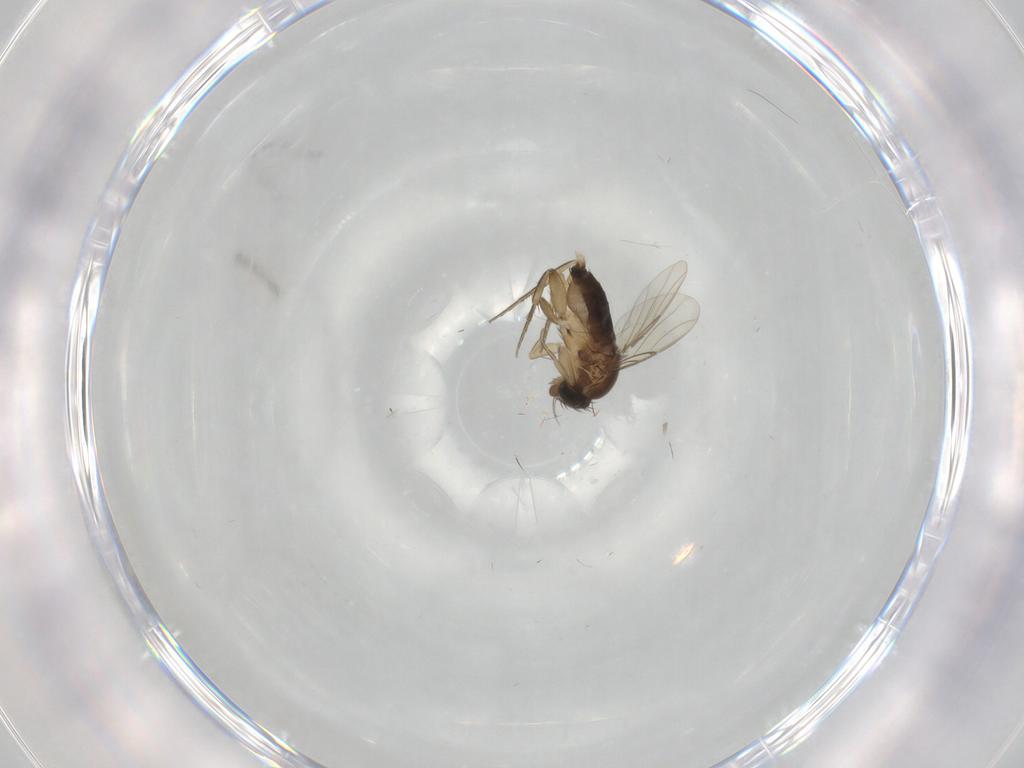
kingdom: Animalia
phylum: Arthropoda
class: Insecta
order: Diptera
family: Phoridae
